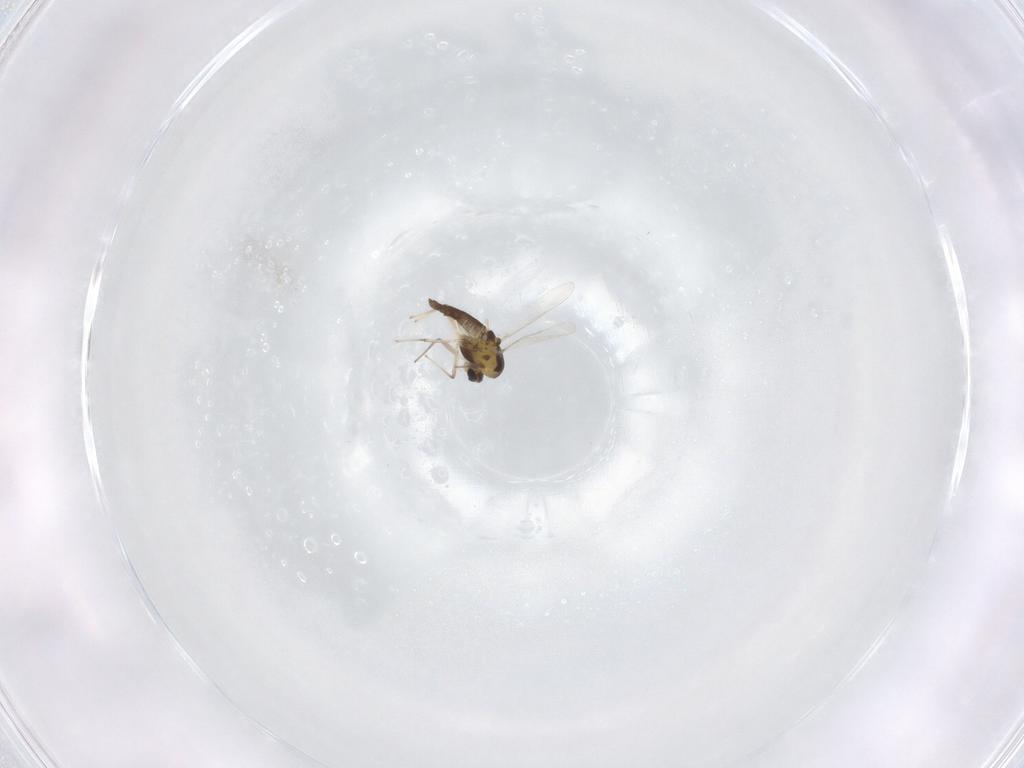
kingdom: Animalia
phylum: Arthropoda
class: Insecta
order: Diptera
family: Chironomidae
